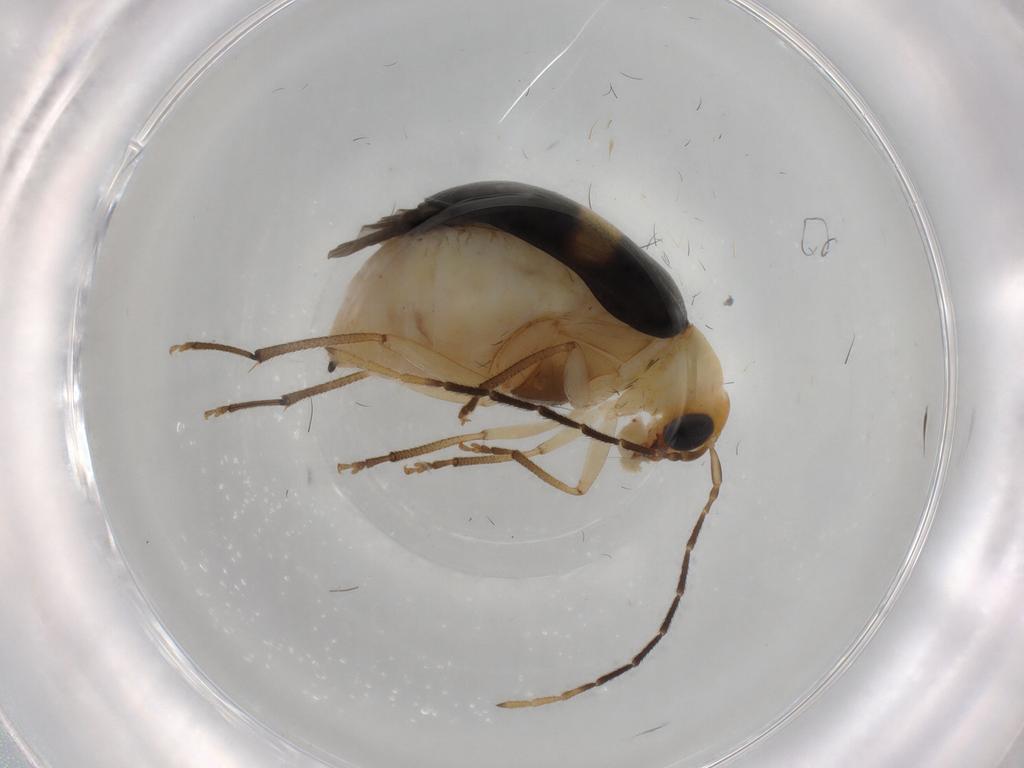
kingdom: Animalia
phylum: Arthropoda
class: Insecta
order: Coleoptera
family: Chrysomelidae
